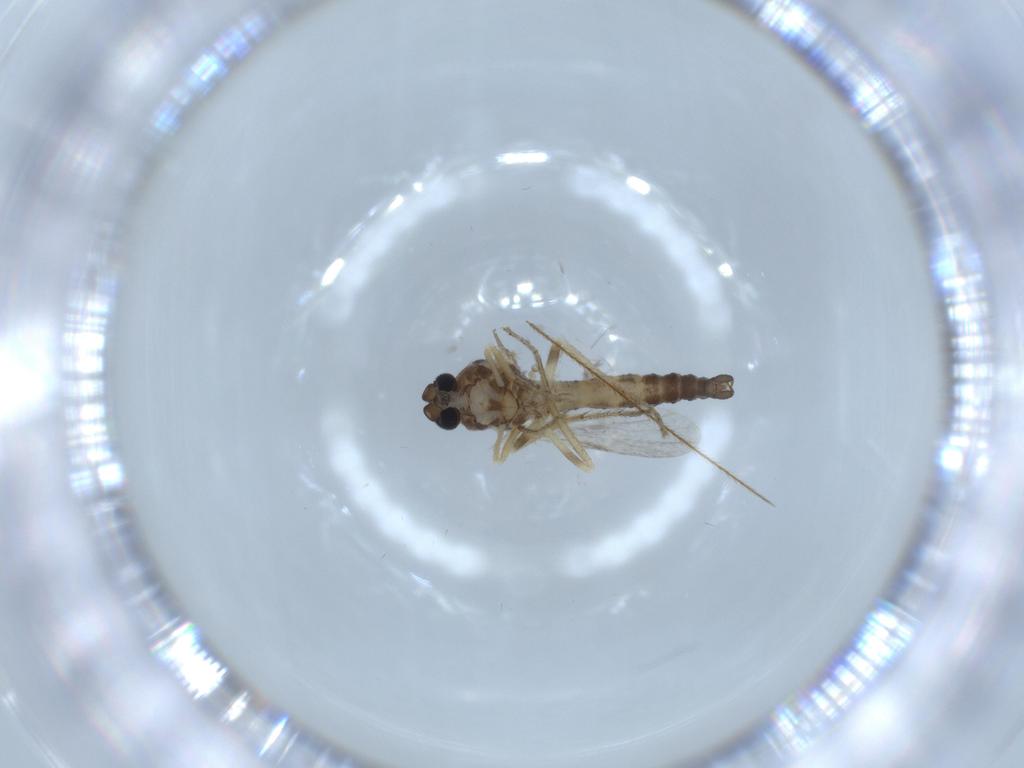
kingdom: Animalia
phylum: Arthropoda
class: Insecta
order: Diptera
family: Ceratopogonidae
